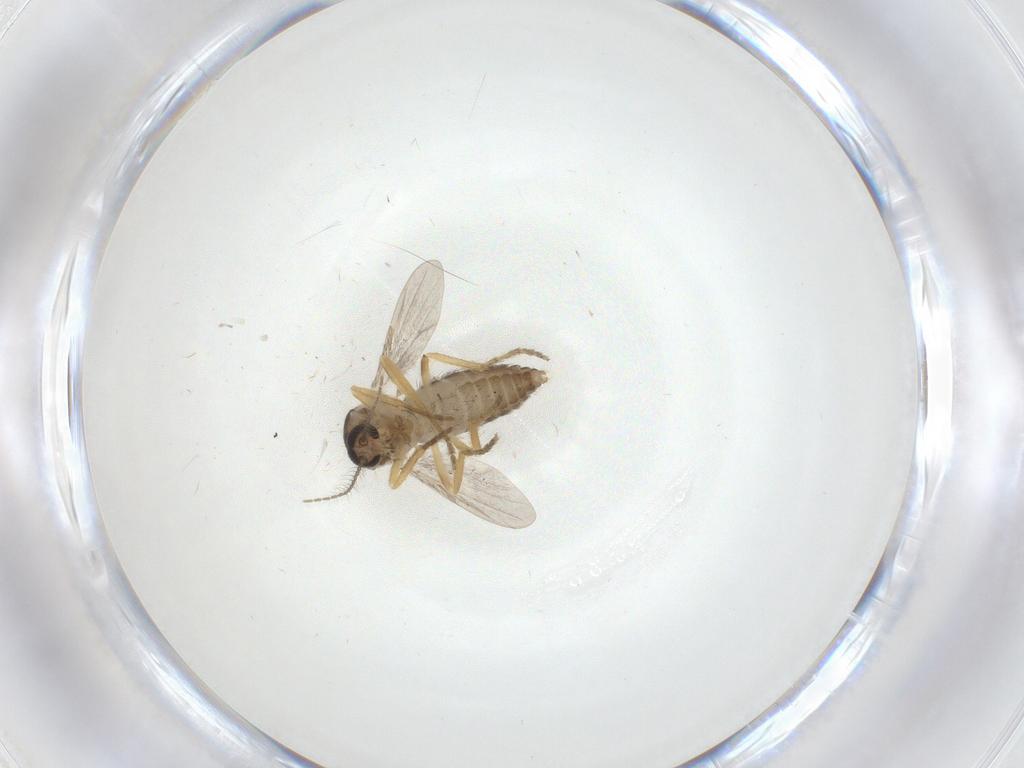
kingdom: Animalia
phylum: Arthropoda
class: Insecta
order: Diptera
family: Ceratopogonidae
